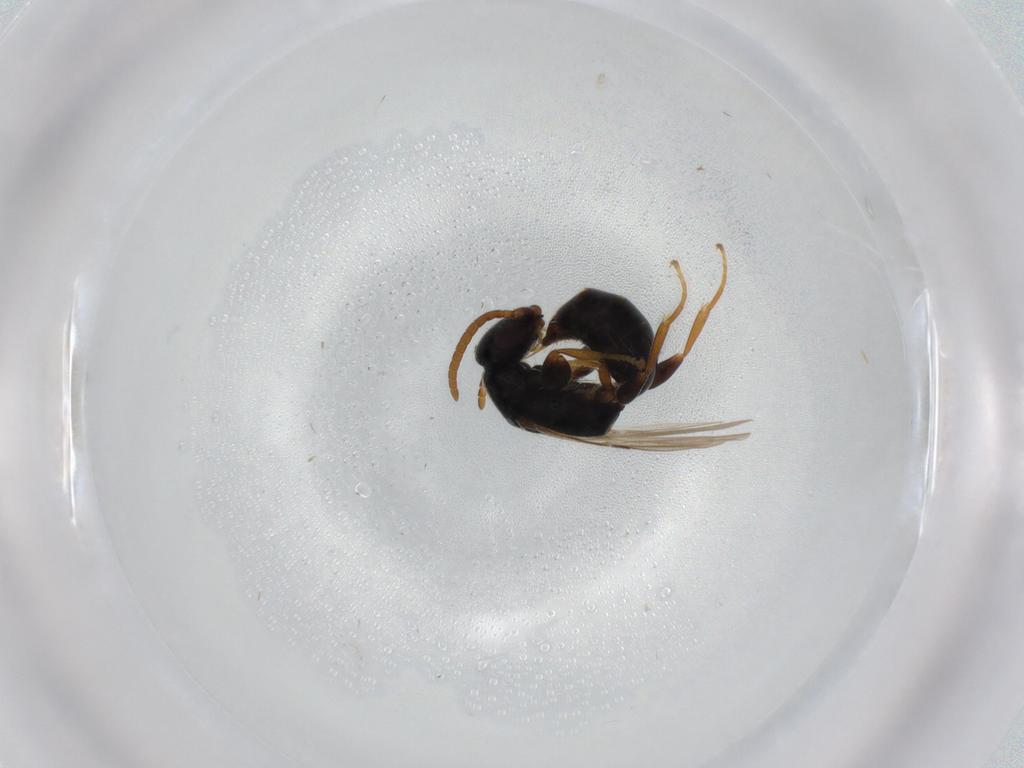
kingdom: Animalia
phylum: Arthropoda
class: Insecta
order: Hymenoptera
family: Bethylidae
